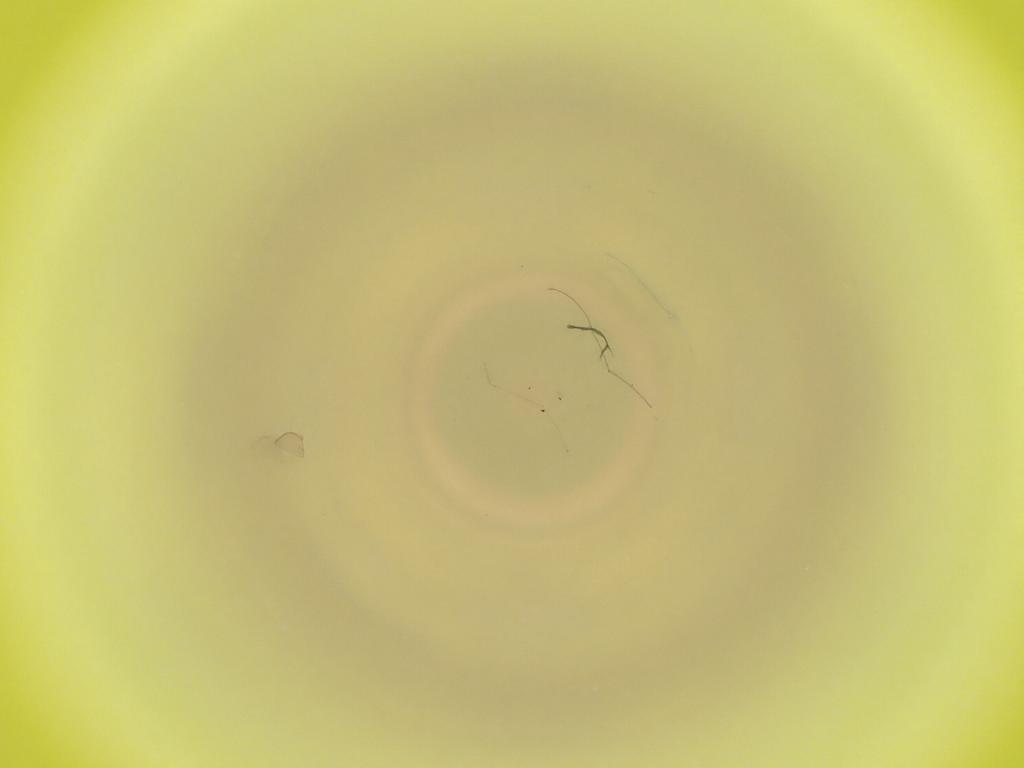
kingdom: Animalia
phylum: Arthropoda
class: Insecta
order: Diptera
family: Cecidomyiidae
